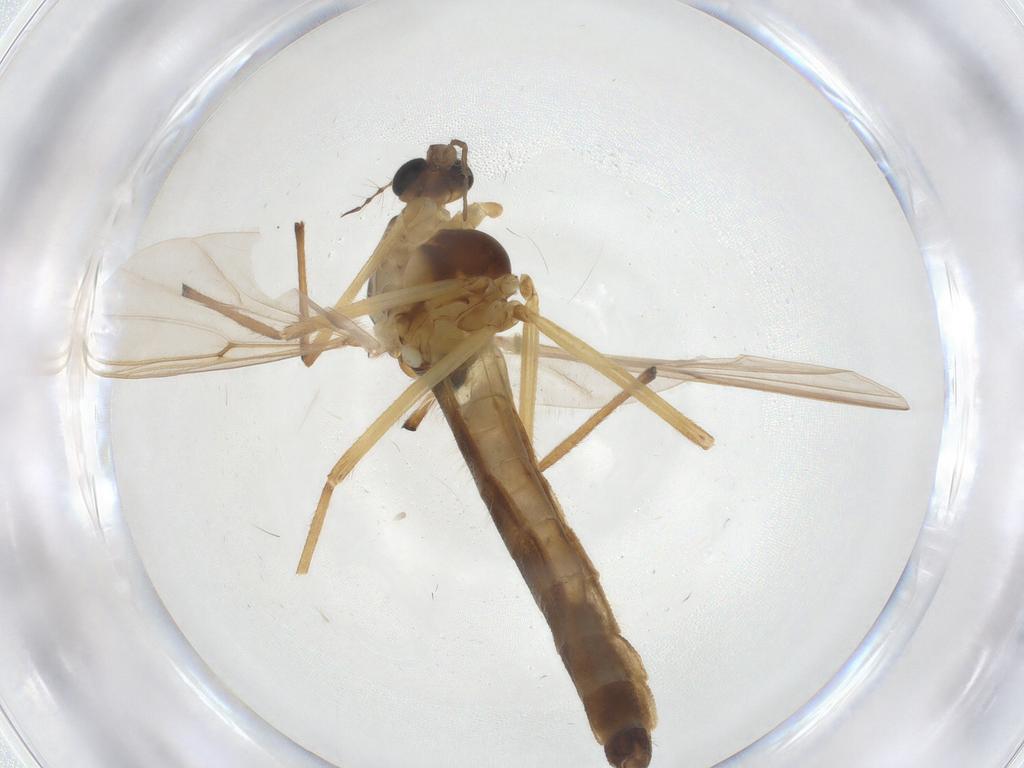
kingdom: Animalia
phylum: Arthropoda
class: Insecta
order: Diptera
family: Chironomidae
